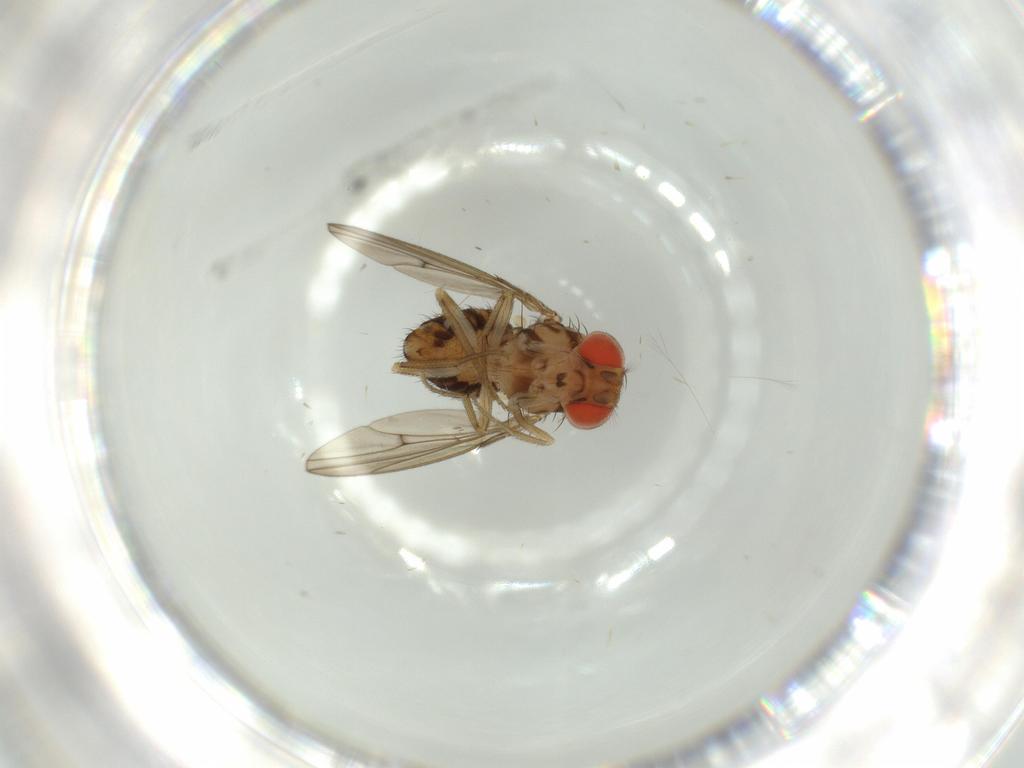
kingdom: Animalia
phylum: Arthropoda
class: Insecta
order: Diptera
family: Drosophilidae
